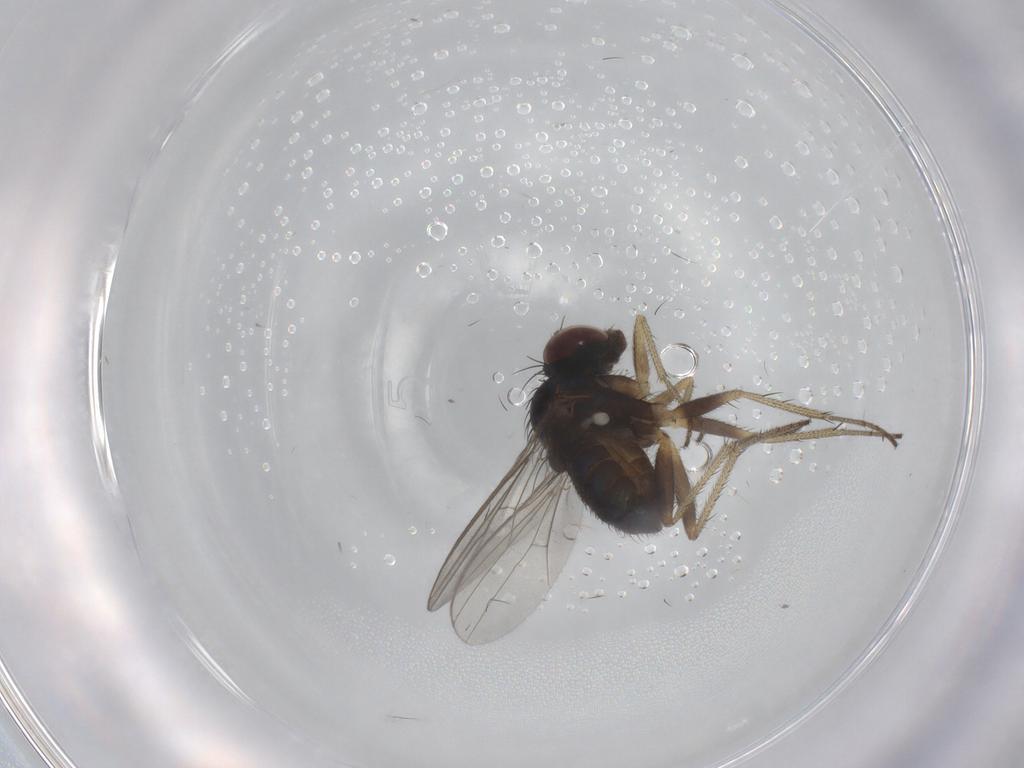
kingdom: Animalia
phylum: Arthropoda
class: Insecta
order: Diptera
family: Dolichopodidae
